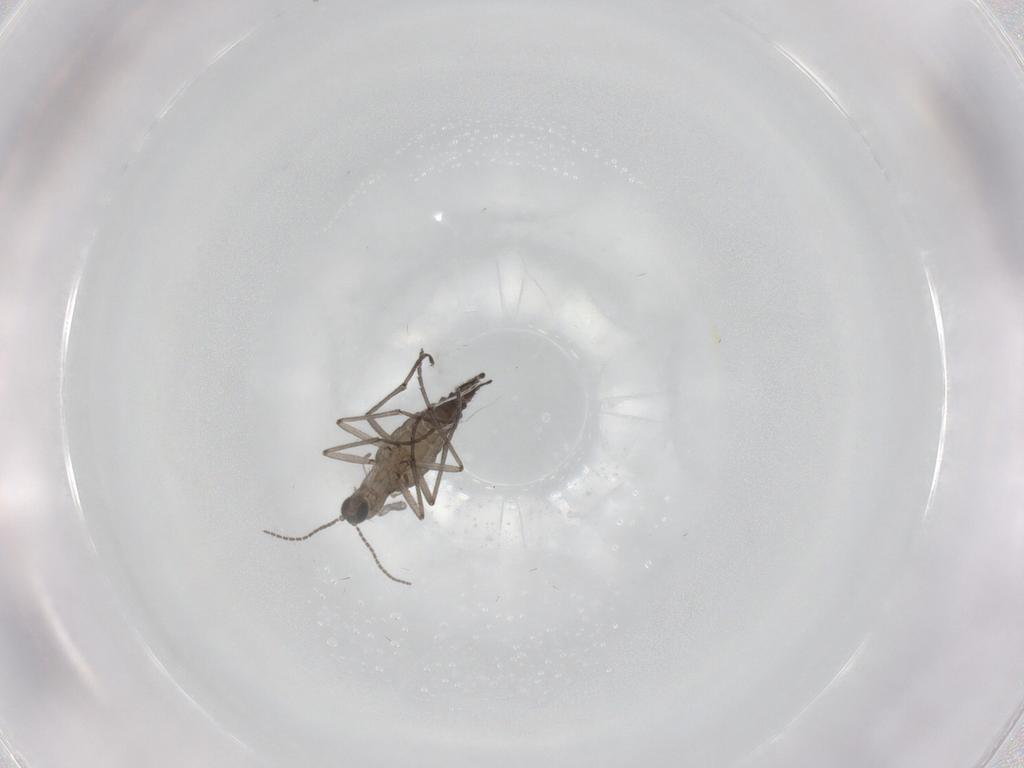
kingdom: Animalia
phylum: Arthropoda
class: Insecta
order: Diptera
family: Sciaridae
